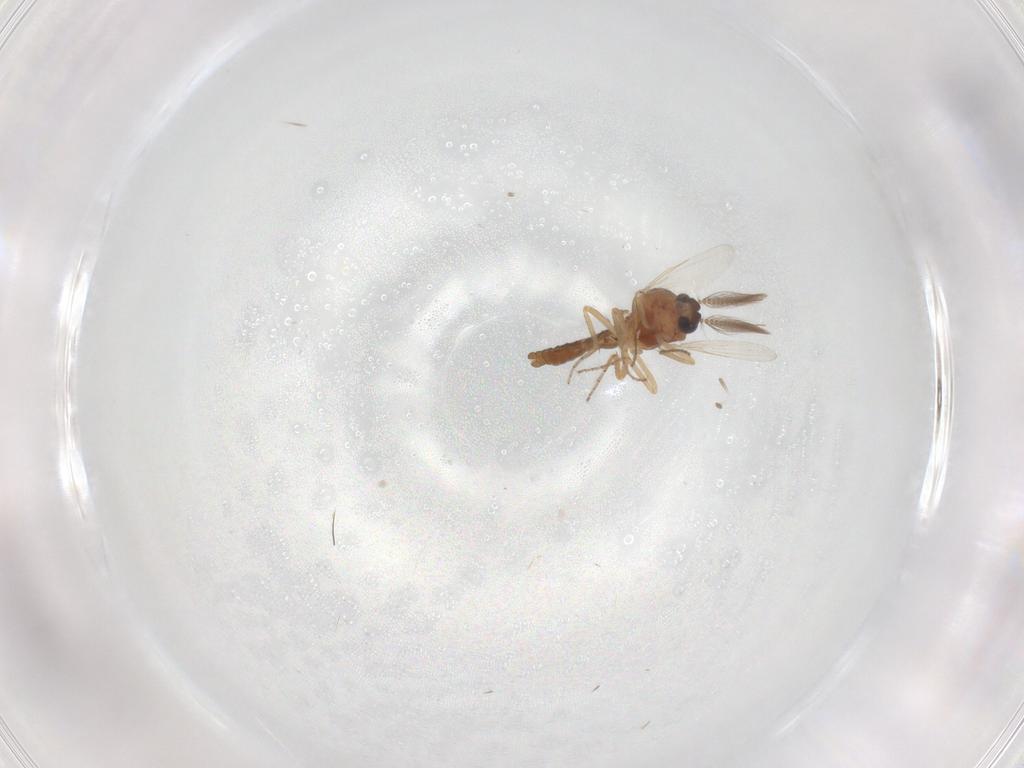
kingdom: Animalia
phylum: Arthropoda
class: Insecta
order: Diptera
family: Ceratopogonidae
